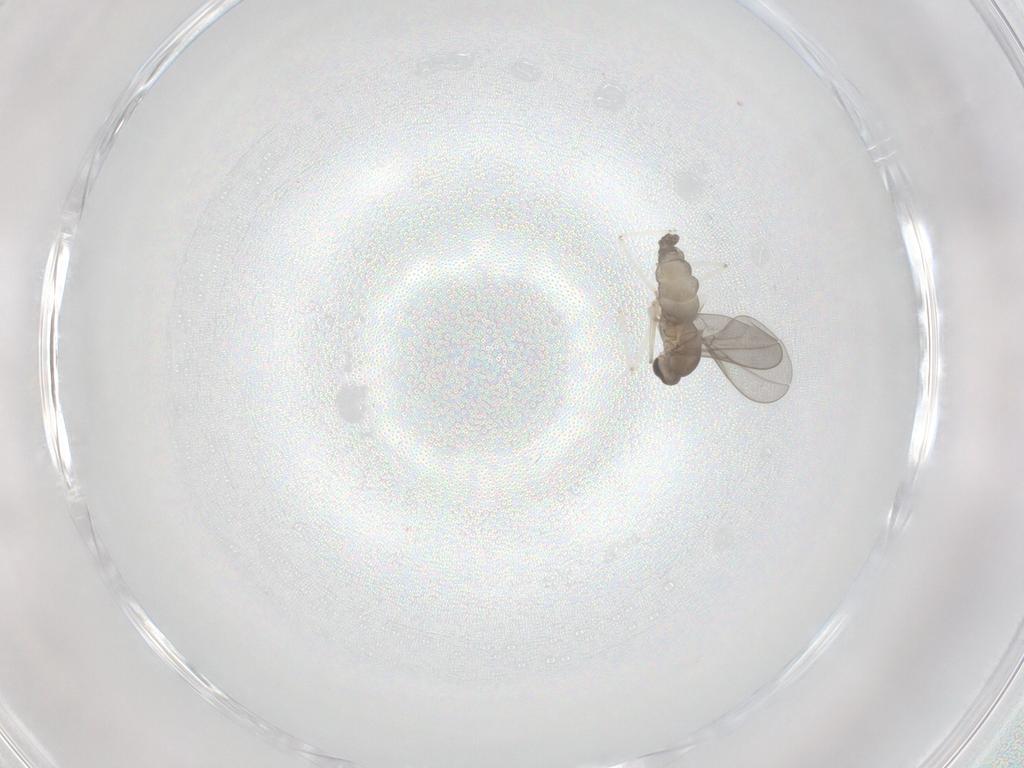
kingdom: Animalia
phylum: Arthropoda
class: Insecta
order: Diptera
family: Cecidomyiidae
